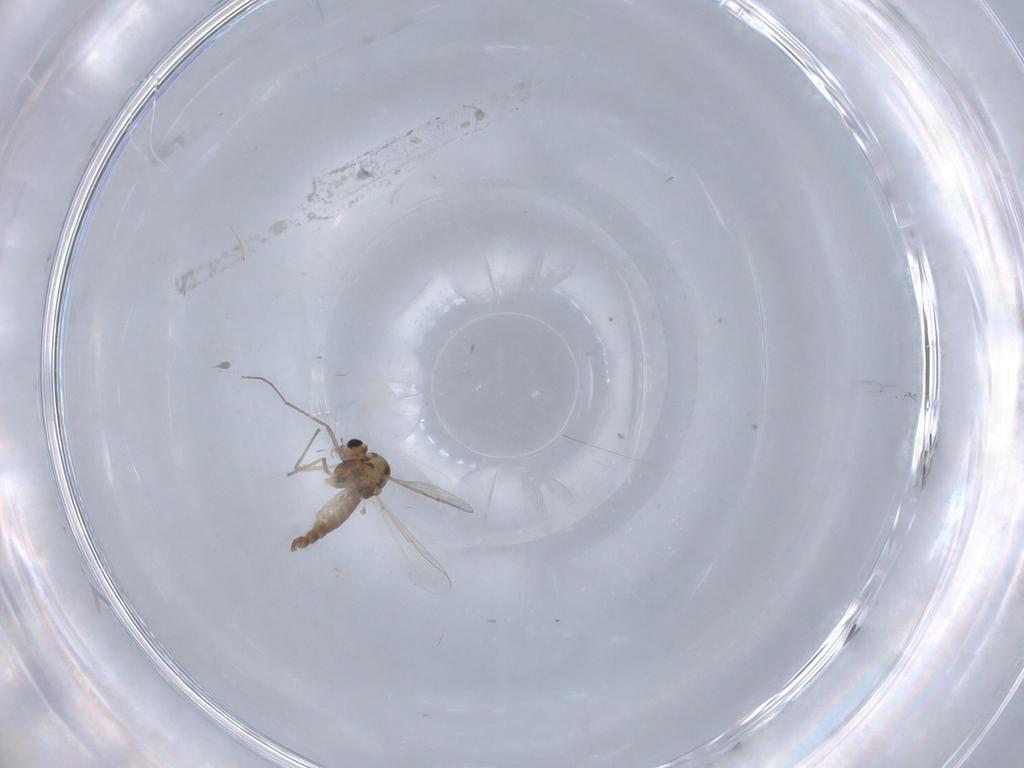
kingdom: Animalia
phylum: Arthropoda
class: Insecta
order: Diptera
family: Chironomidae
